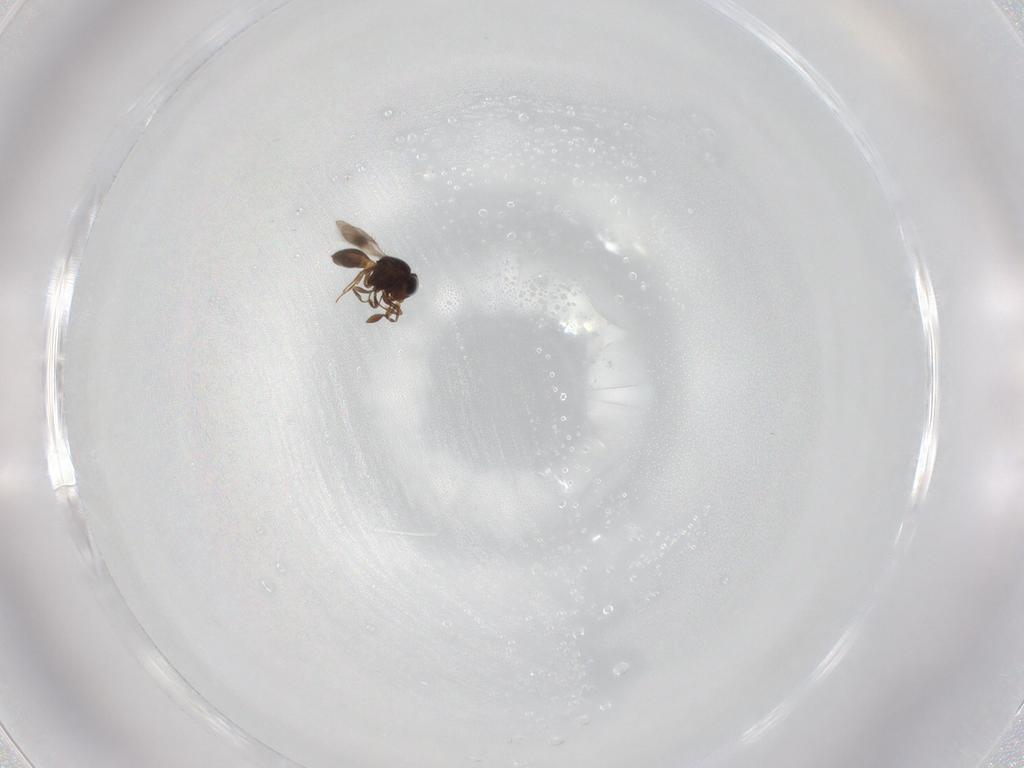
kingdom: Animalia
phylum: Arthropoda
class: Insecta
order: Hymenoptera
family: Scelionidae
